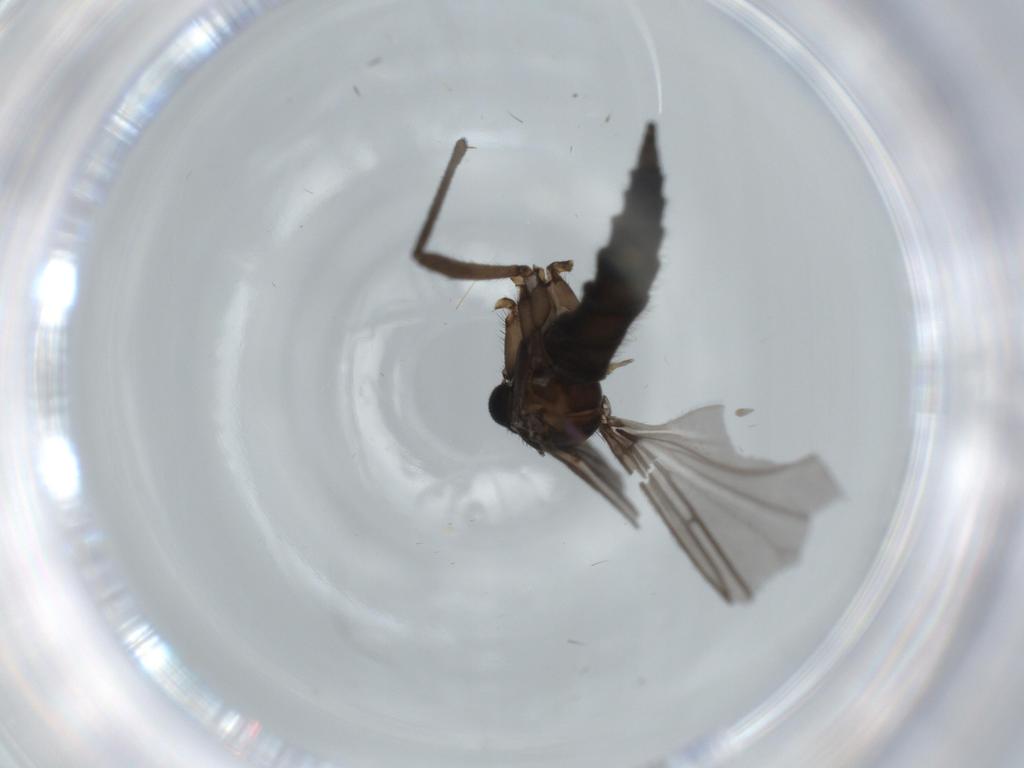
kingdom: Animalia
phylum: Arthropoda
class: Insecta
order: Diptera
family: Sciaridae
